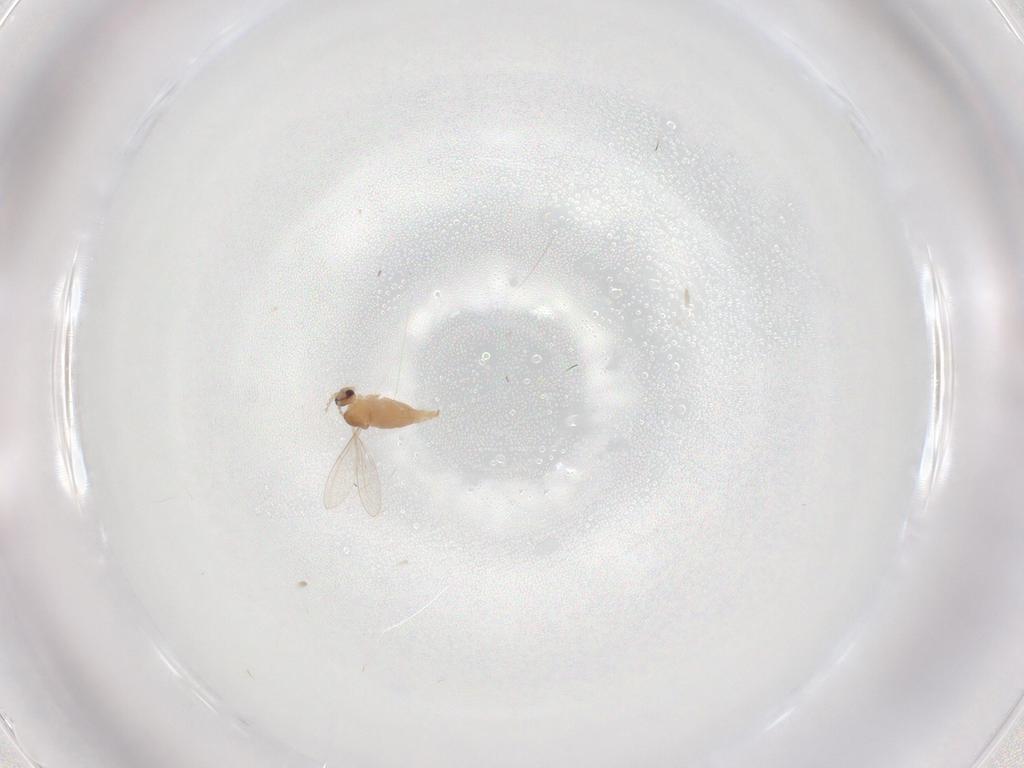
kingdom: Animalia
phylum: Arthropoda
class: Insecta
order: Diptera
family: Cecidomyiidae
